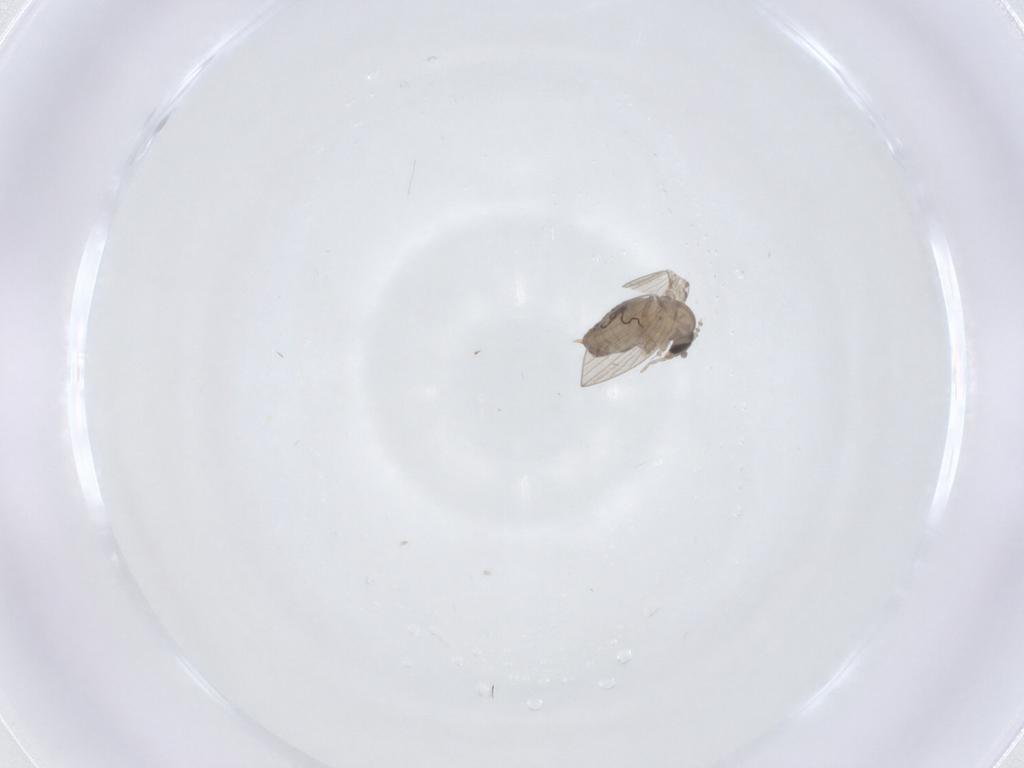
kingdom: Animalia
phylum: Arthropoda
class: Insecta
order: Diptera
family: Psychodidae
